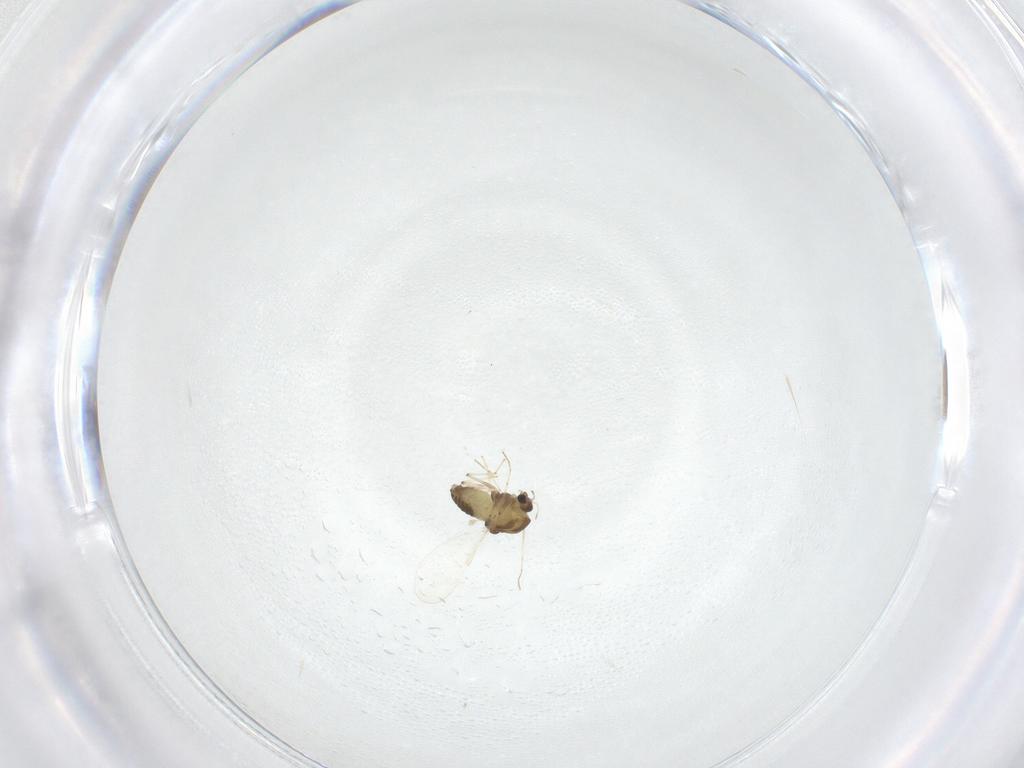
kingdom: Animalia
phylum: Arthropoda
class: Insecta
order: Diptera
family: Chironomidae
